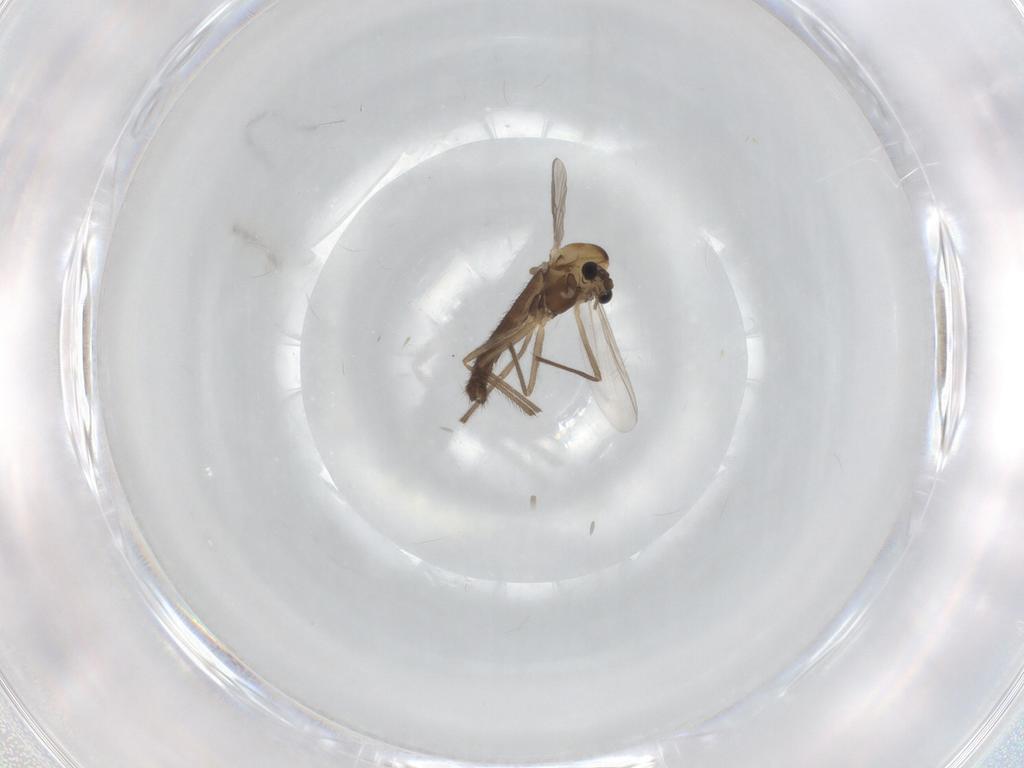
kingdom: Animalia
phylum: Arthropoda
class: Insecta
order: Diptera
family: Chironomidae
